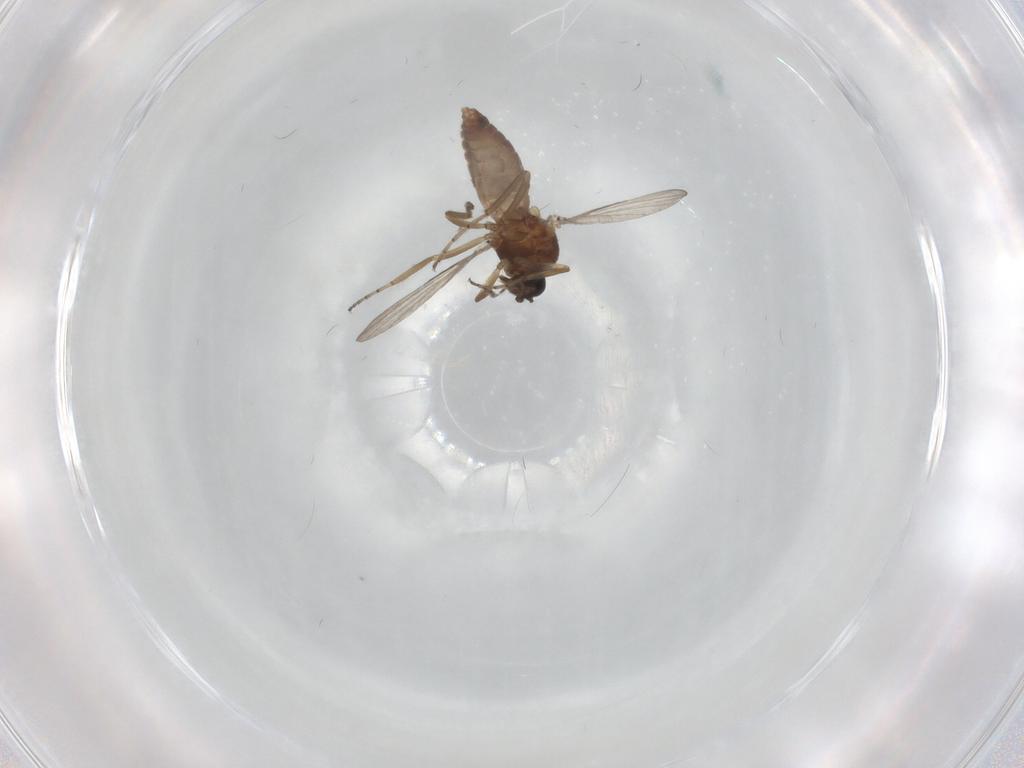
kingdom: Animalia
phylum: Arthropoda
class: Insecta
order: Diptera
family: Ceratopogonidae
